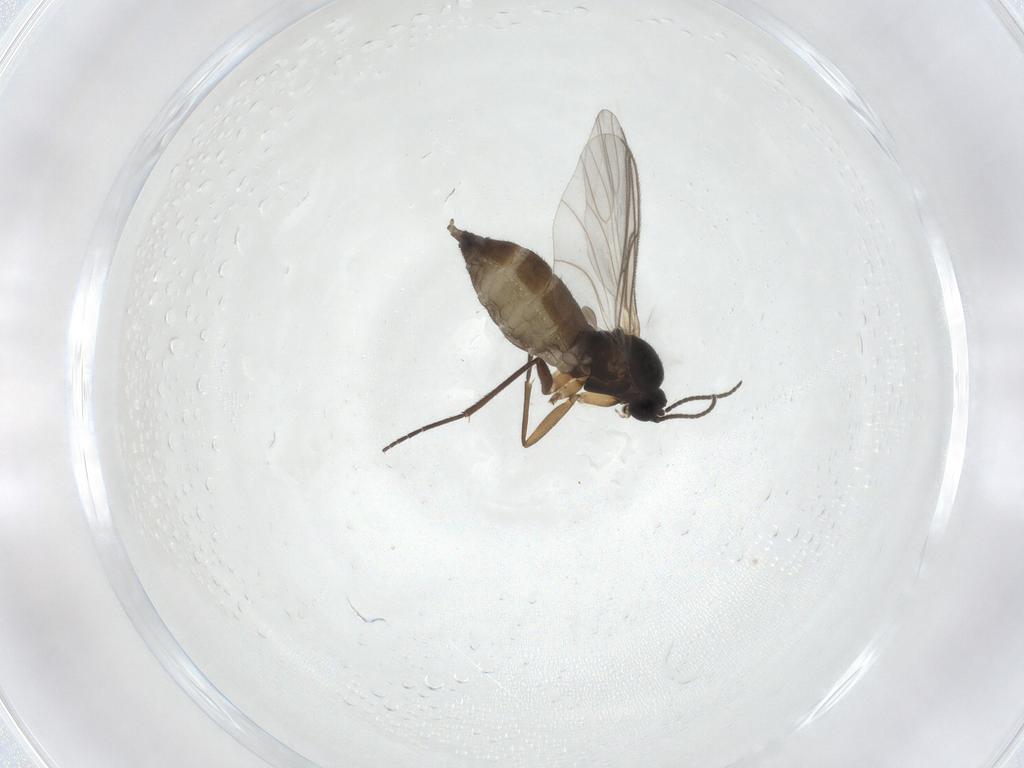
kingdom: Animalia
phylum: Arthropoda
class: Insecta
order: Diptera
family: Sciaridae
